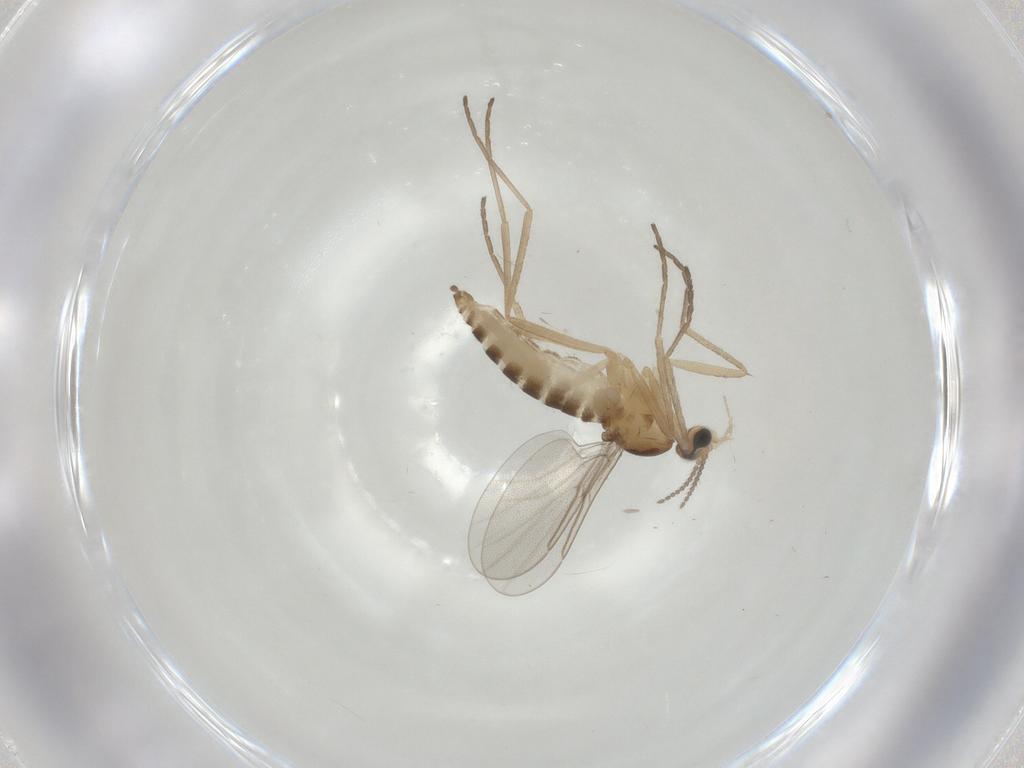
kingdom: Animalia
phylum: Arthropoda
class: Insecta
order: Diptera
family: Cecidomyiidae
